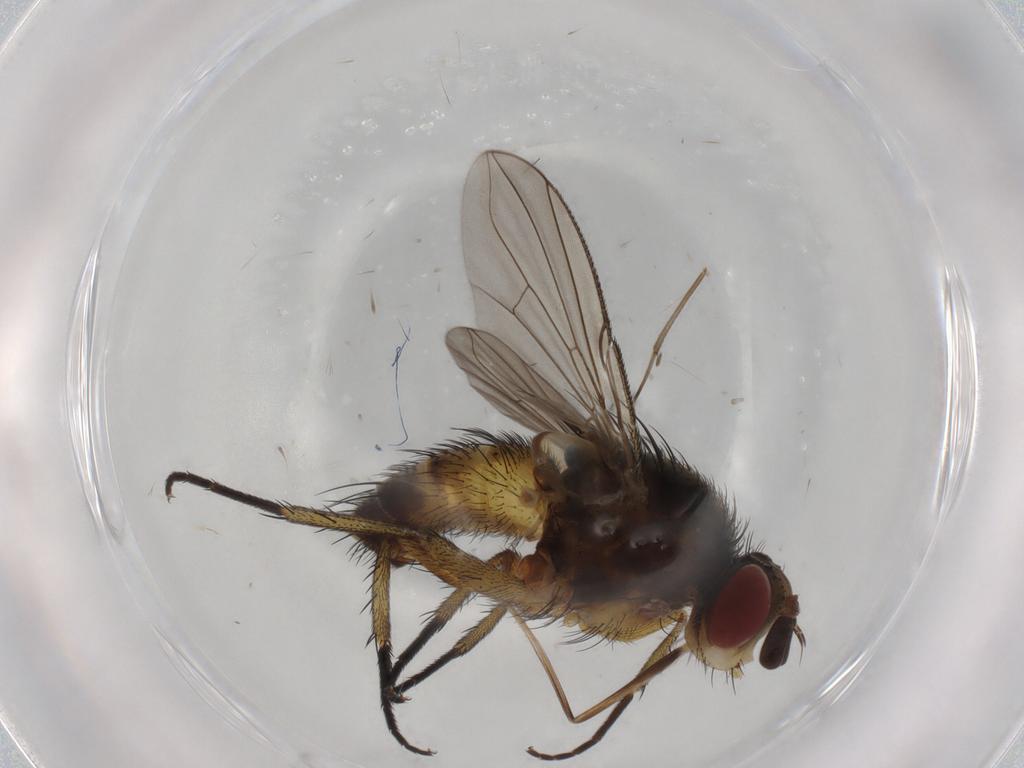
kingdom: Animalia
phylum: Arthropoda
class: Insecta
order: Diptera
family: Tachinidae
